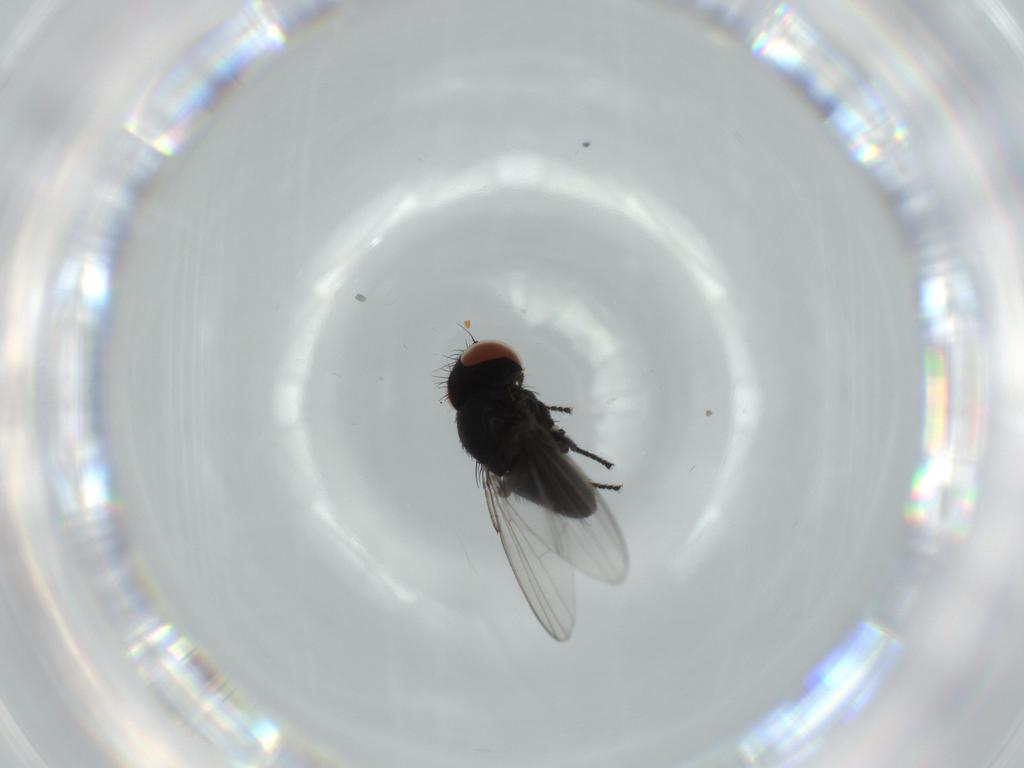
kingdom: Animalia
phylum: Arthropoda
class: Insecta
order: Diptera
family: Milichiidae
